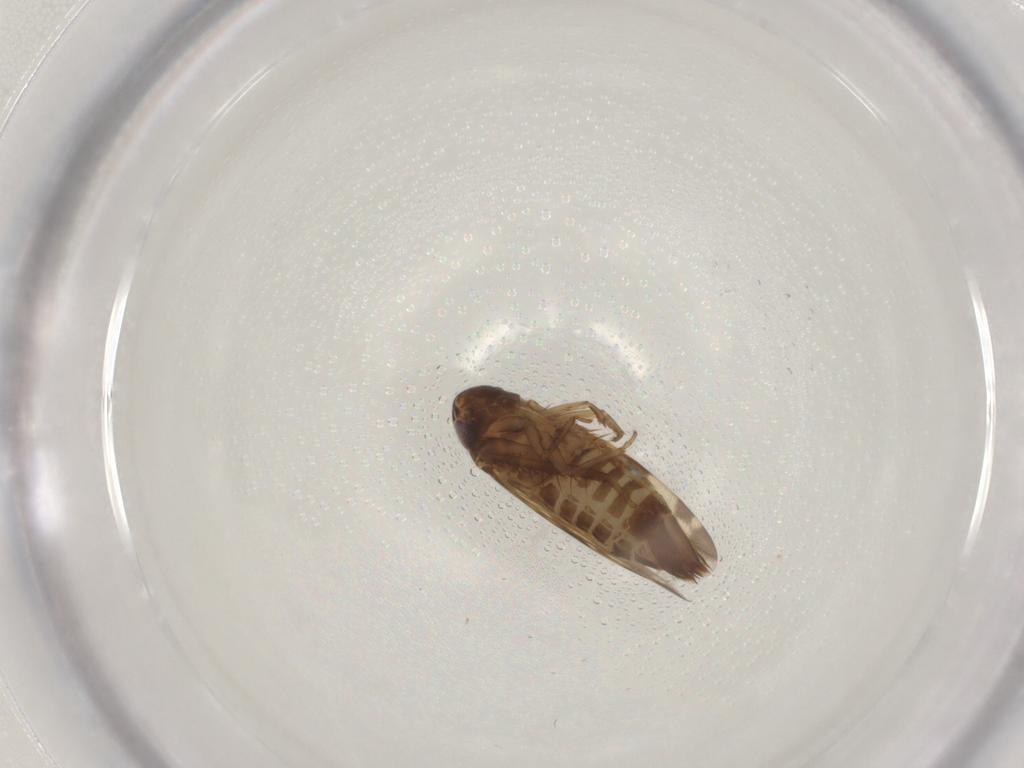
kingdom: Animalia
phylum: Arthropoda
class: Insecta
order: Hemiptera
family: Cicadellidae
